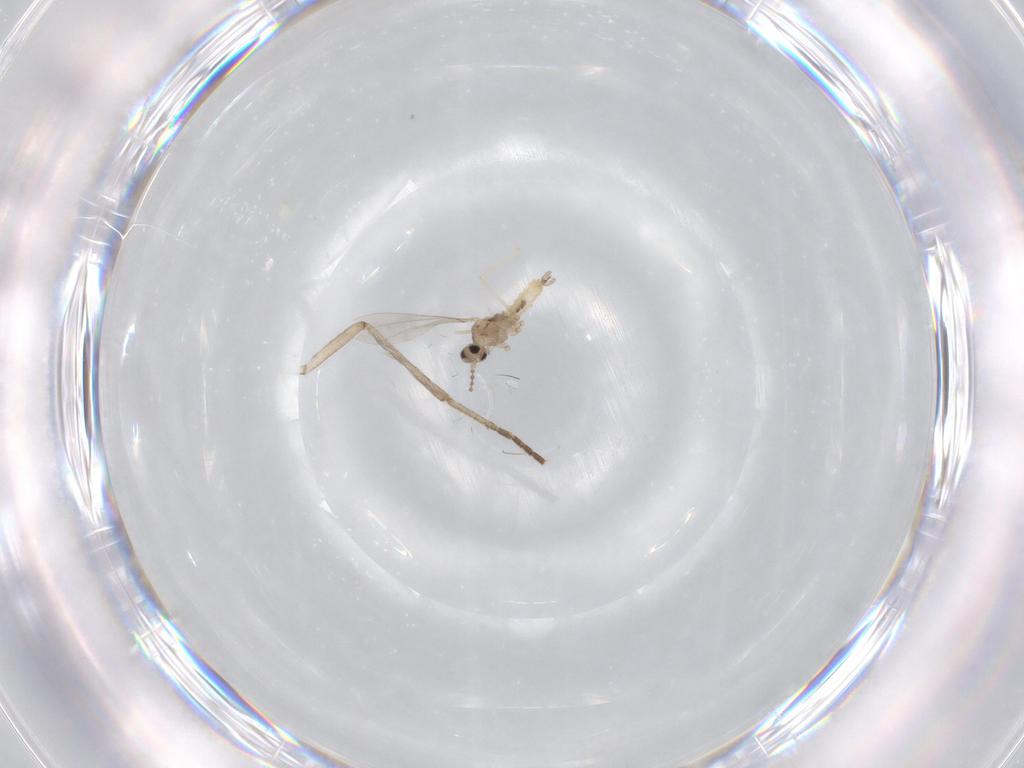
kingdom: Animalia
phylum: Arthropoda
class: Insecta
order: Diptera
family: Psychodidae
